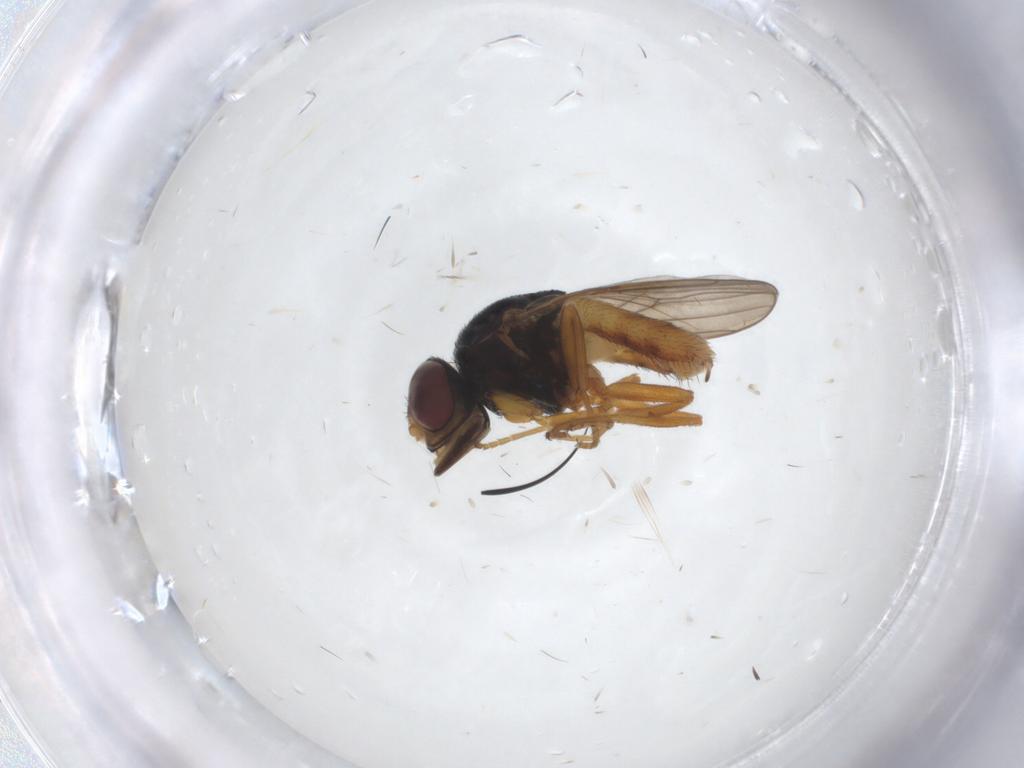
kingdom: Animalia
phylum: Arthropoda
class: Insecta
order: Diptera
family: Chloropidae
